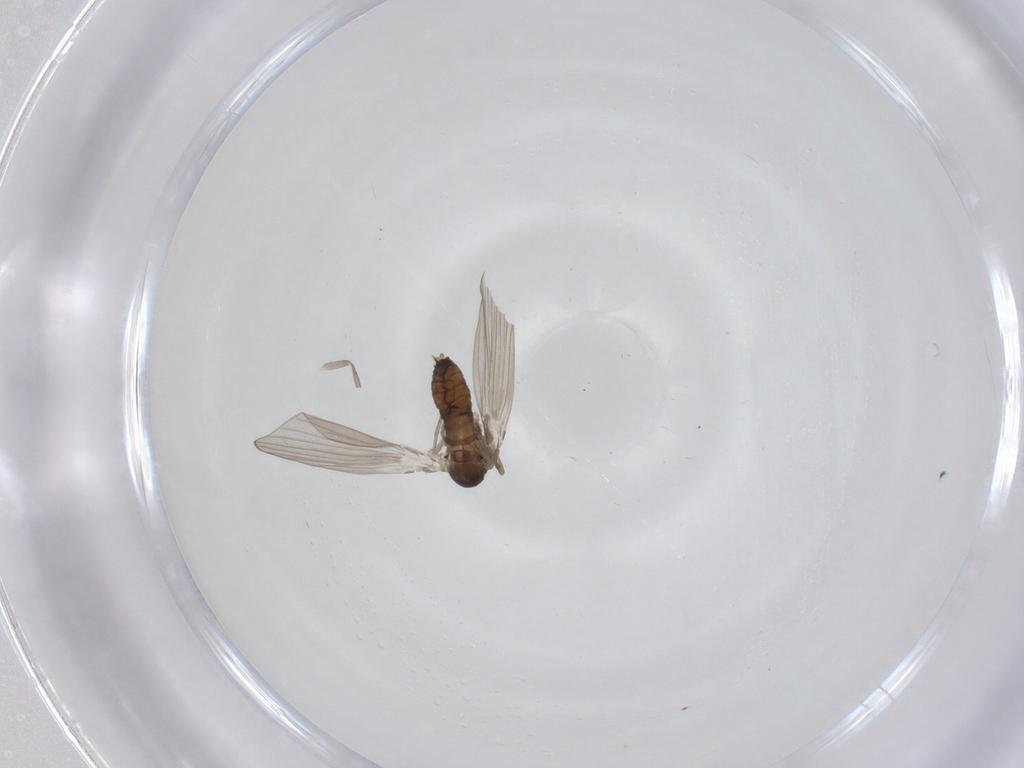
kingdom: Animalia
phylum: Arthropoda
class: Insecta
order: Diptera
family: Psychodidae
